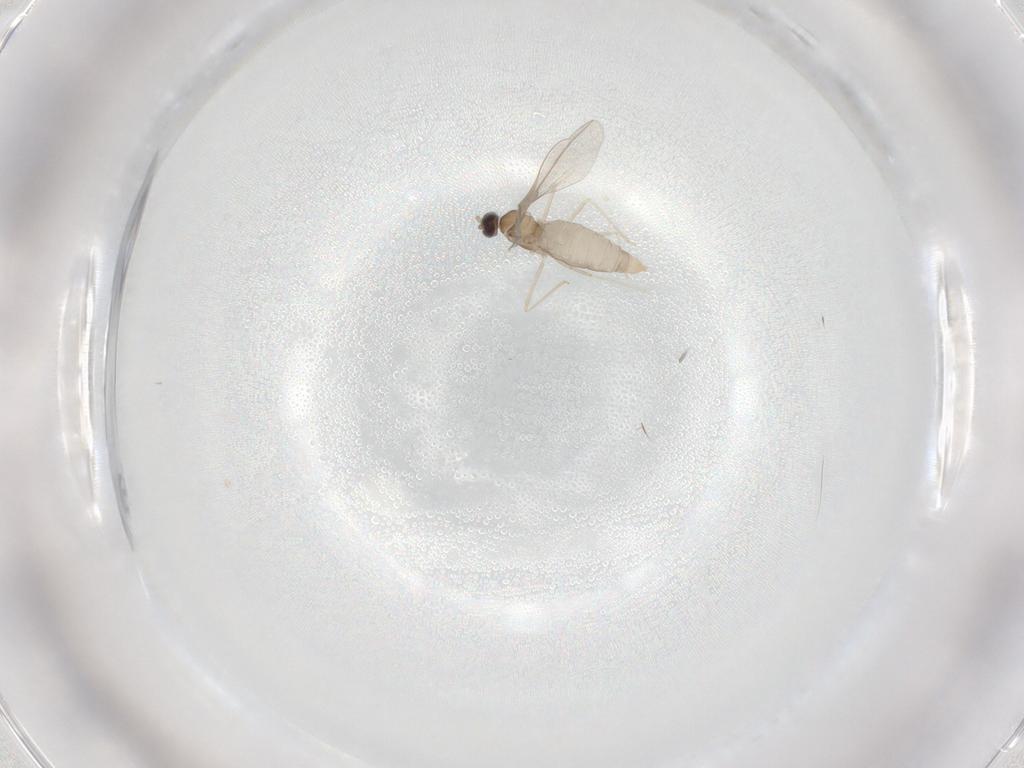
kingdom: Animalia
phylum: Arthropoda
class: Insecta
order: Diptera
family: Cecidomyiidae
